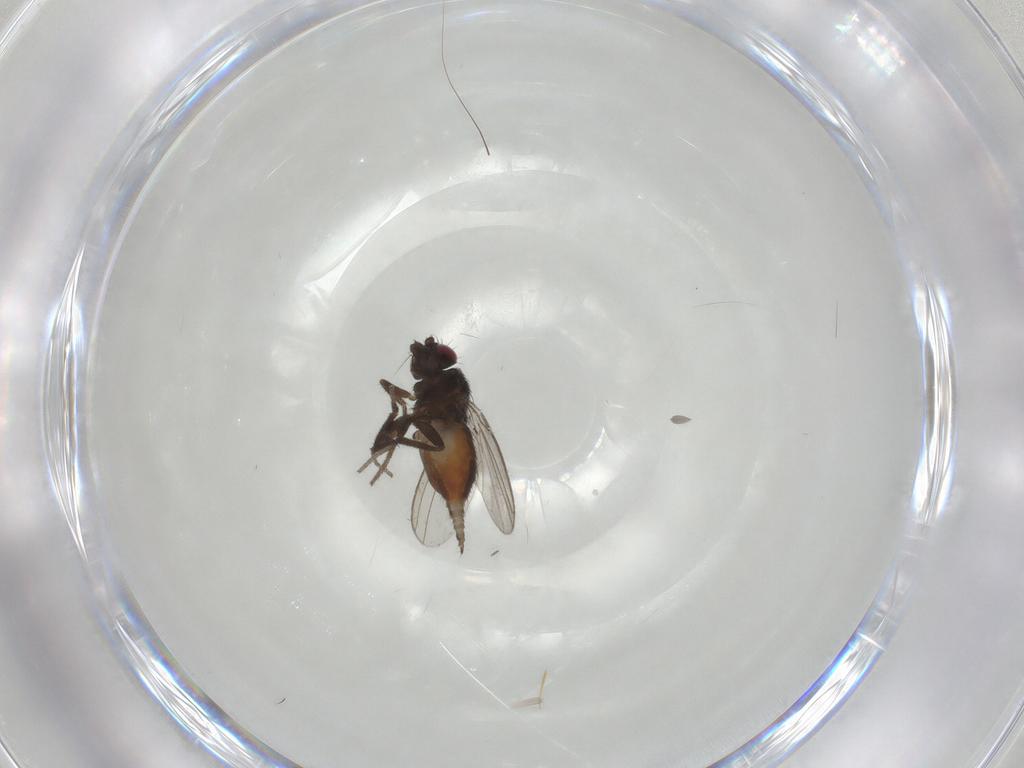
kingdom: Animalia
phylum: Arthropoda
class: Insecta
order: Diptera
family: Milichiidae
